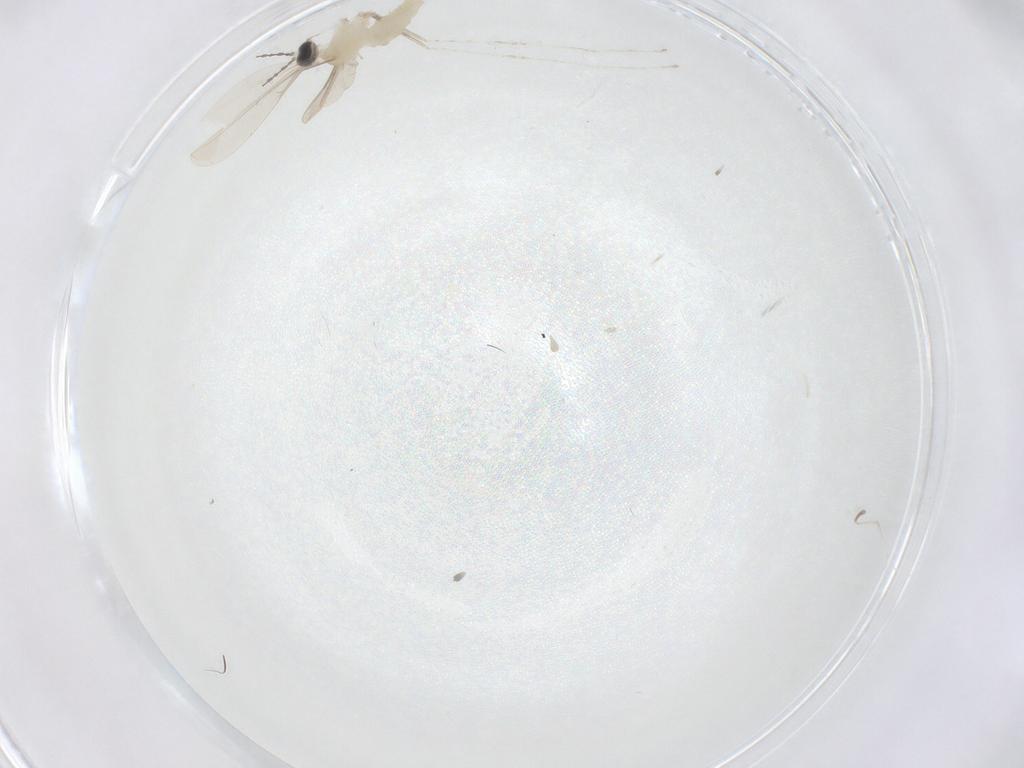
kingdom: Animalia
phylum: Arthropoda
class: Insecta
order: Diptera
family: Cecidomyiidae
